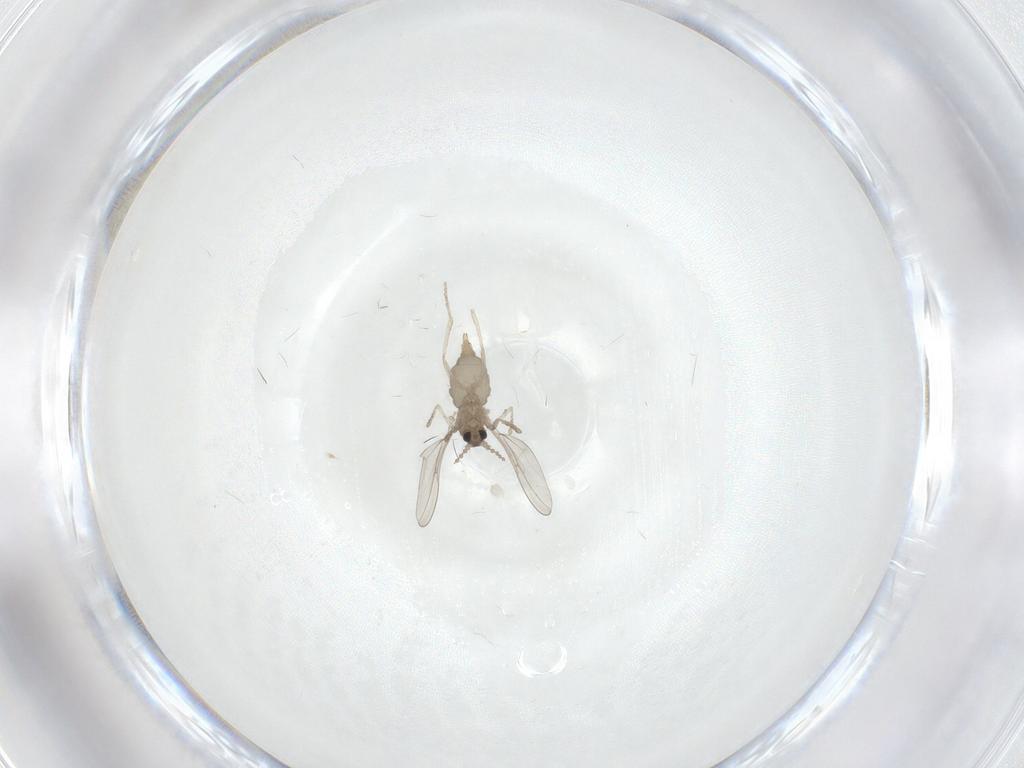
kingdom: Animalia
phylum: Arthropoda
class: Insecta
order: Diptera
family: Cecidomyiidae
